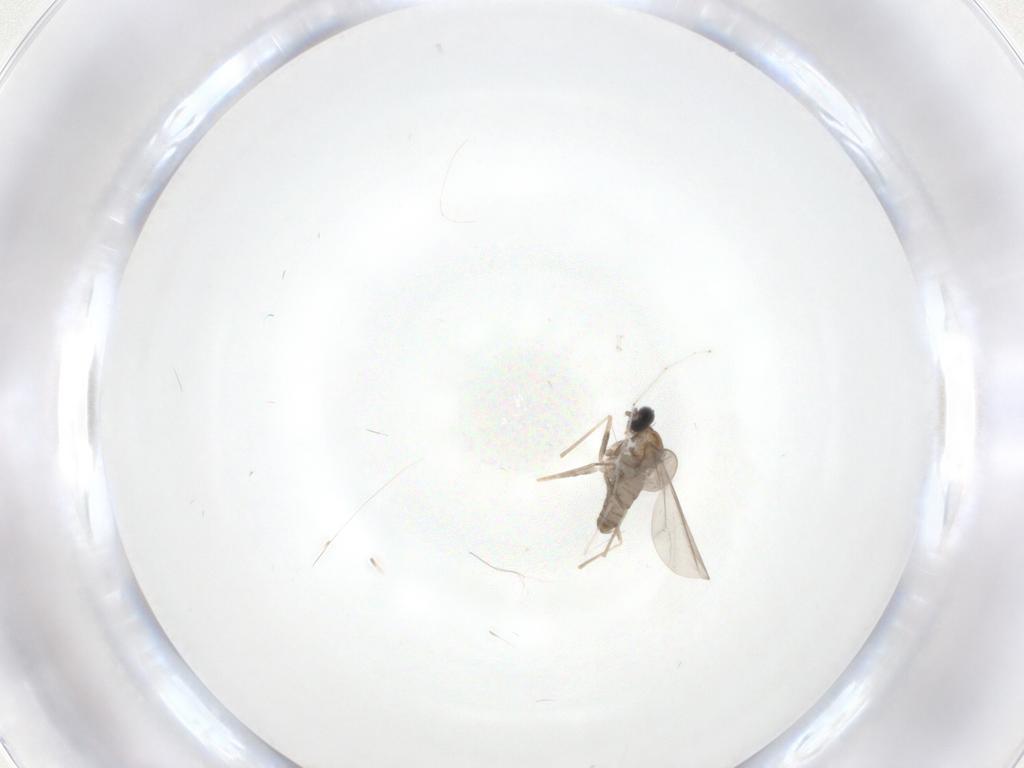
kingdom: Animalia
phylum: Arthropoda
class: Insecta
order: Diptera
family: Cecidomyiidae
